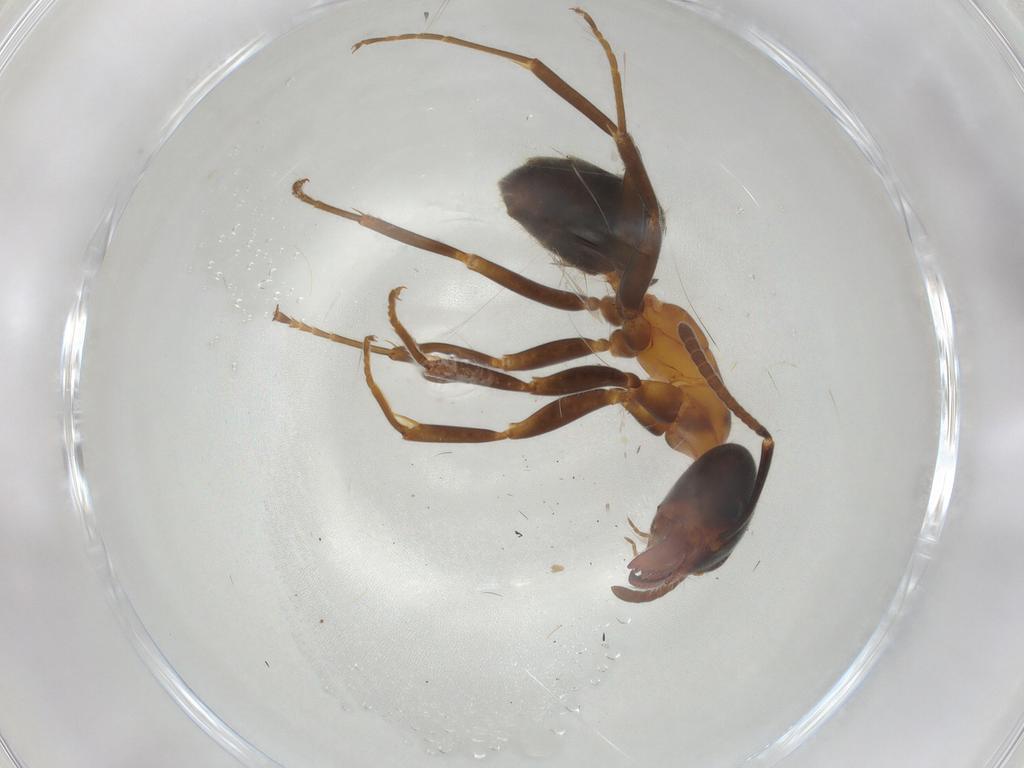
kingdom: Animalia
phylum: Arthropoda
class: Insecta
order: Hymenoptera
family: Formicidae
